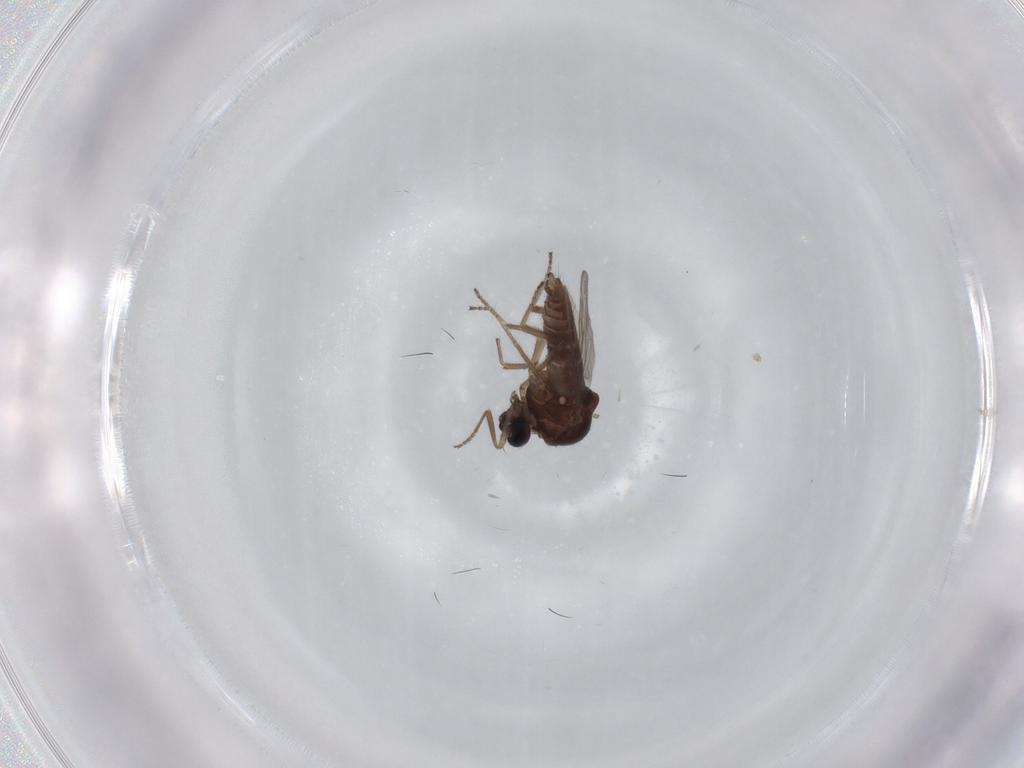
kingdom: Animalia
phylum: Arthropoda
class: Insecta
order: Diptera
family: Ceratopogonidae
